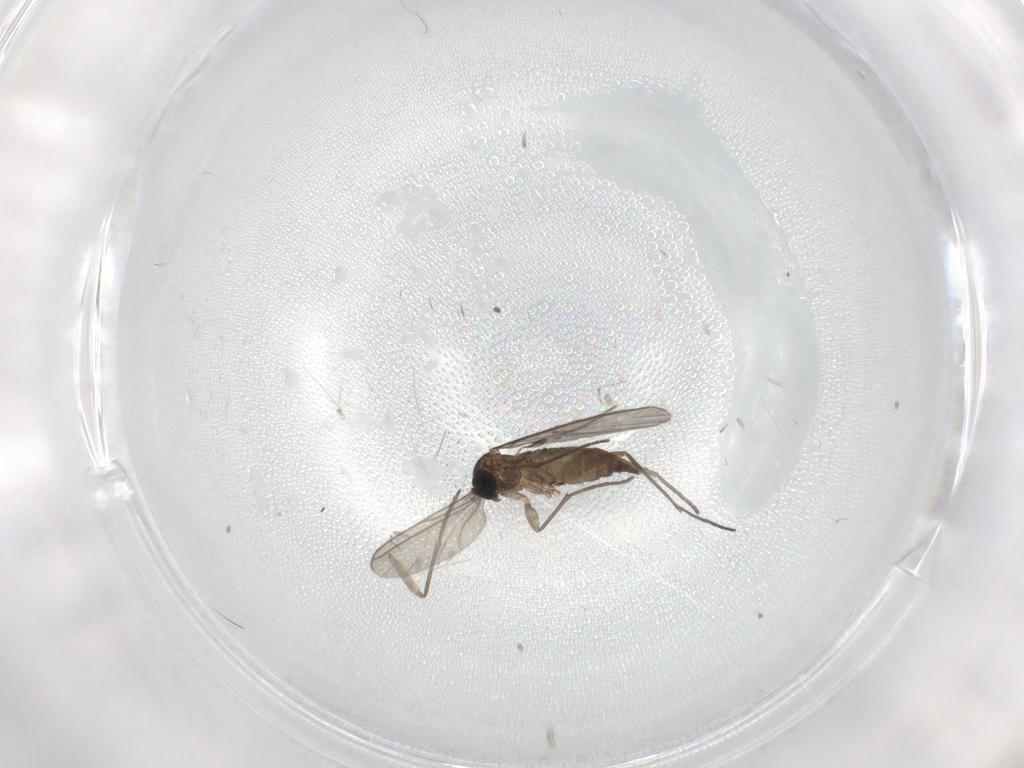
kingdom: Animalia
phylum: Arthropoda
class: Insecta
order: Diptera
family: Sciaridae
